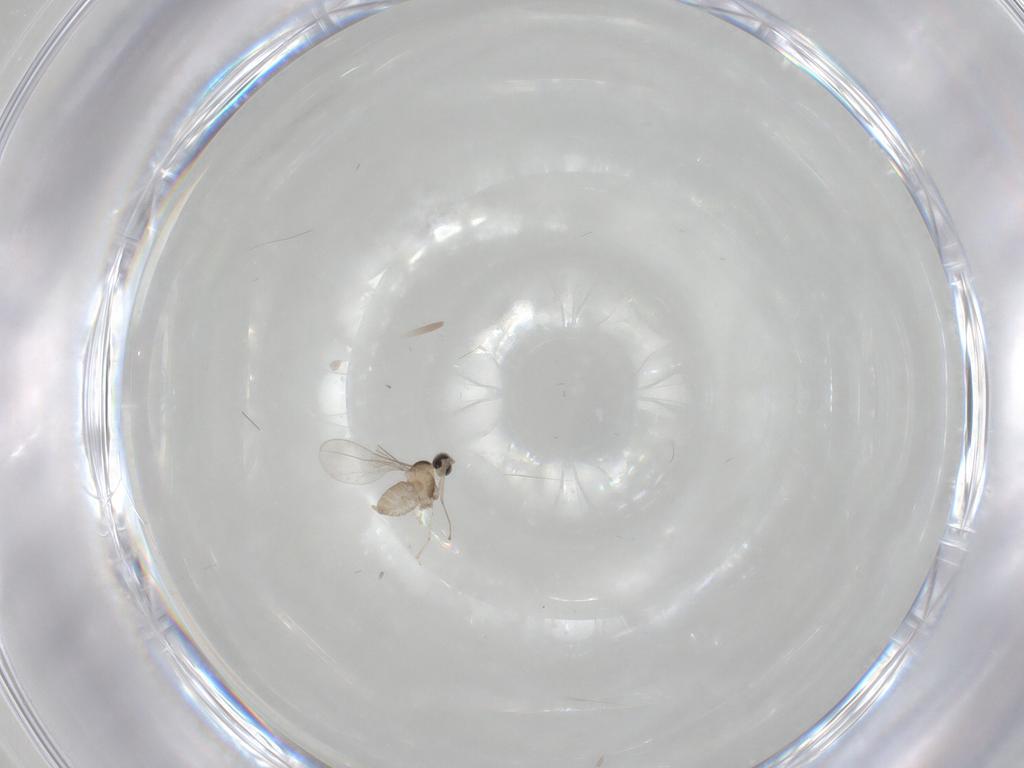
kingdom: Animalia
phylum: Arthropoda
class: Insecta
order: Diptera
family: Cecidomyiidae
